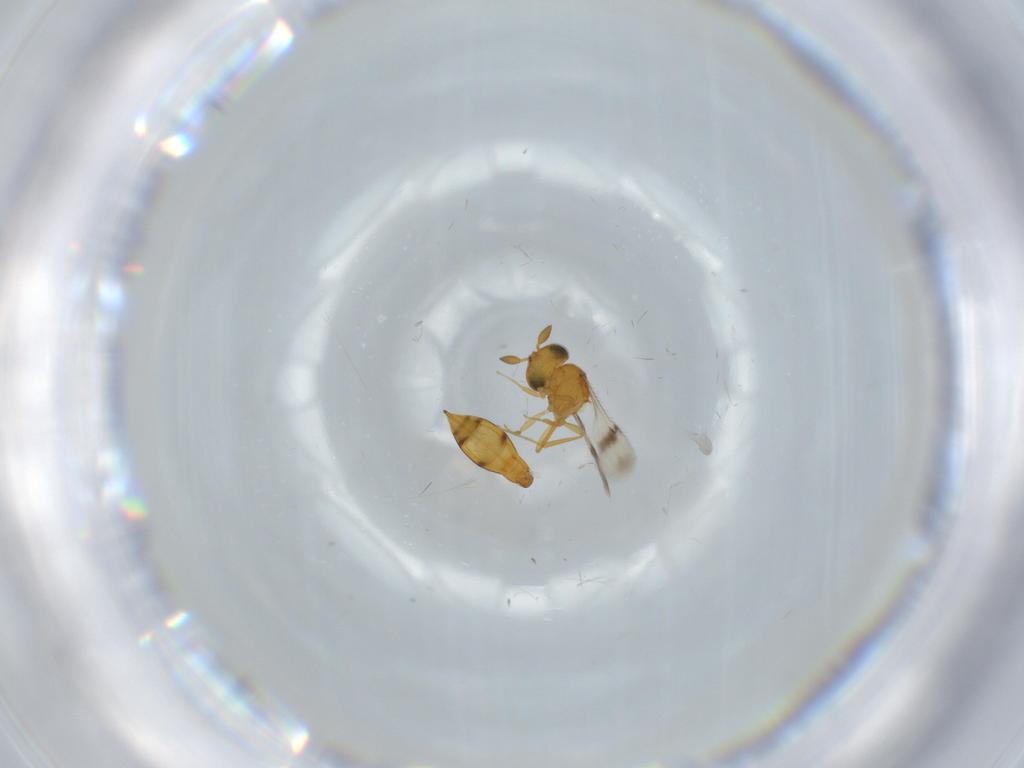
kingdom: Animalia
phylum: Arthropoda
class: Insecta
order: Hymenoptera
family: Scelionidae
